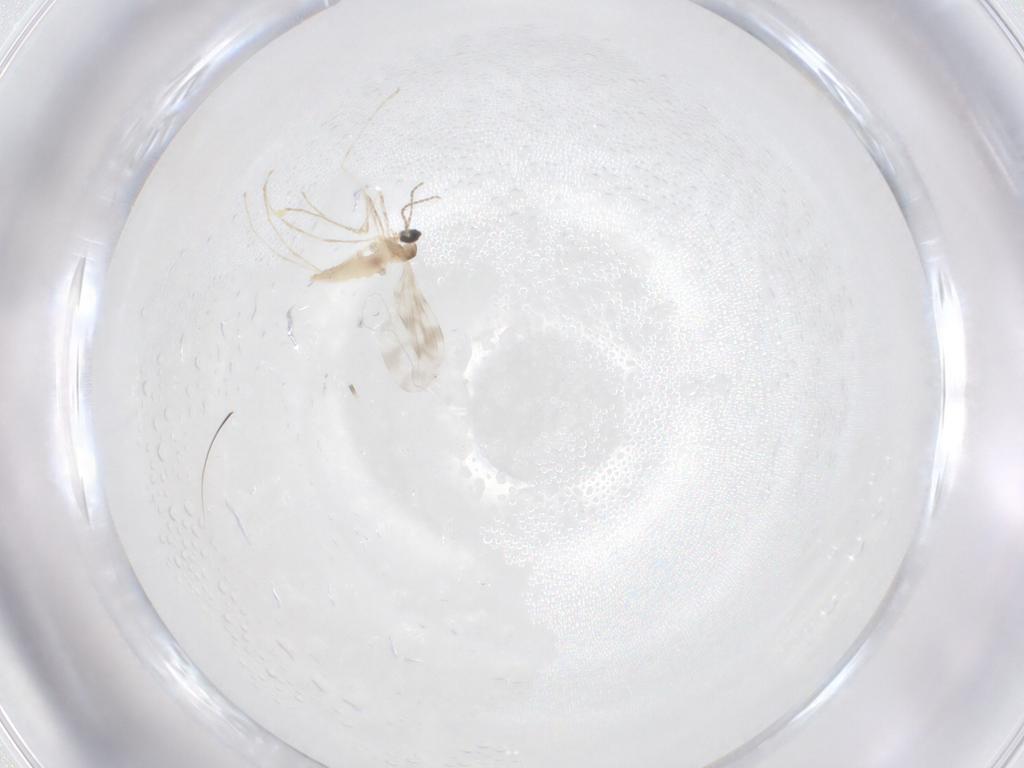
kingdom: Animalia
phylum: Arthropoda
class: Insecta
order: Diptera
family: Cecidomyiidae
